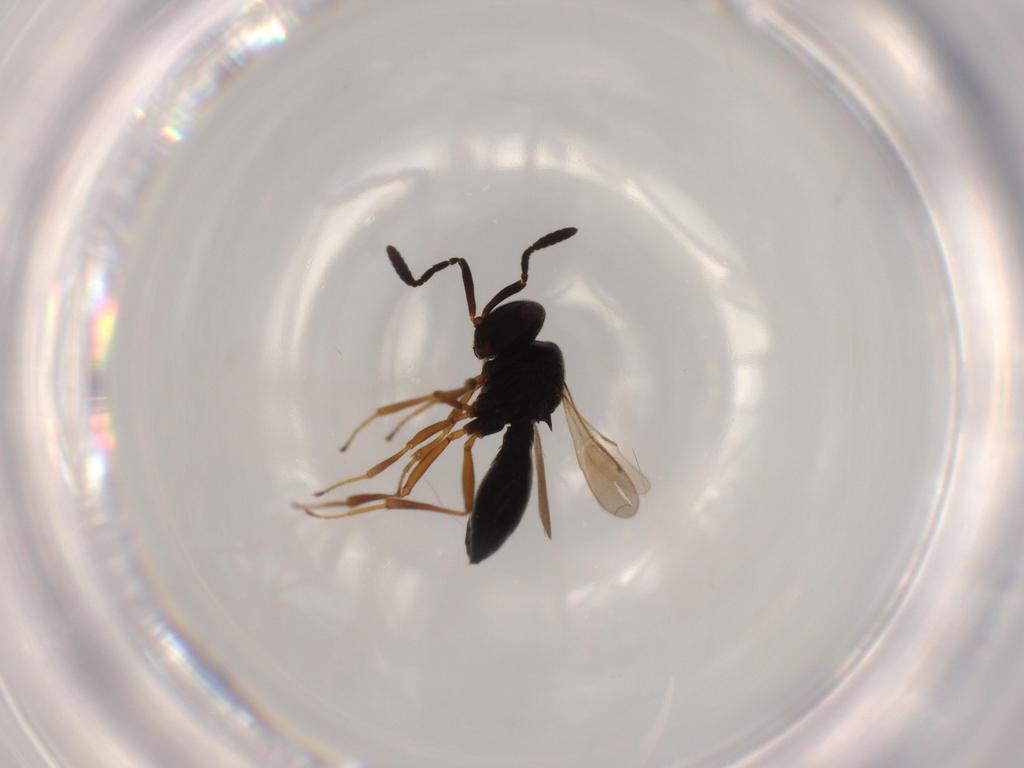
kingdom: Animalia
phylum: Arthropoda
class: Insecta
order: Hymenoptera
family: Scelionidae
